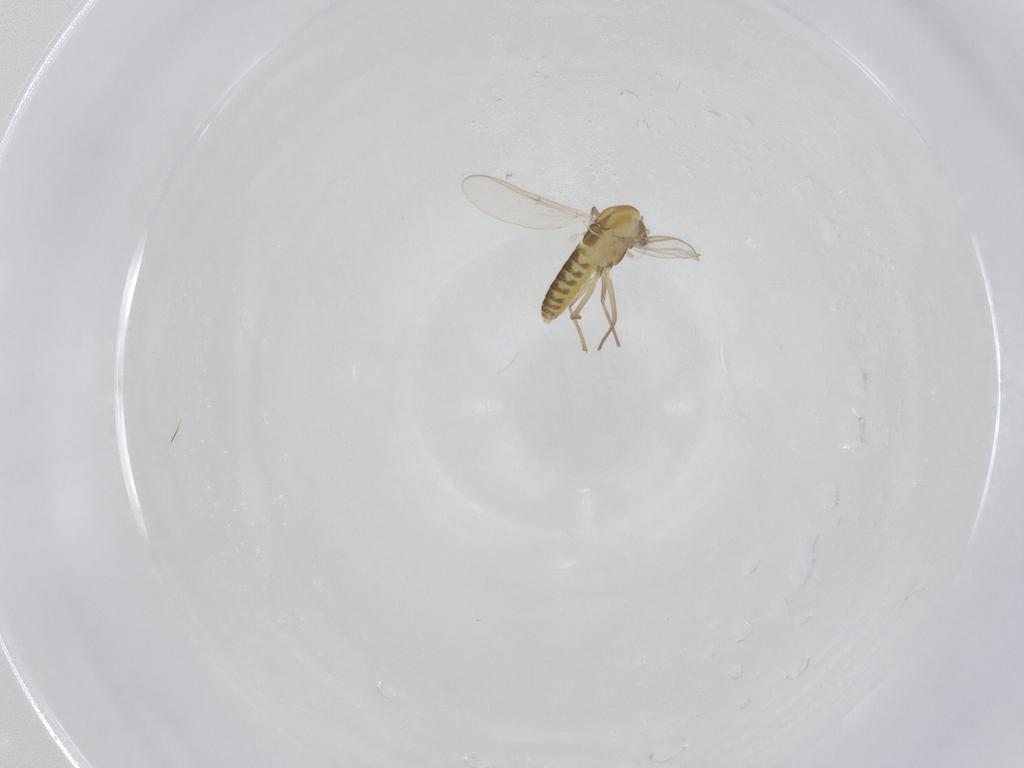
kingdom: Animalia
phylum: Arthropoda
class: Insecta
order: Diptera
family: Chironomidae
